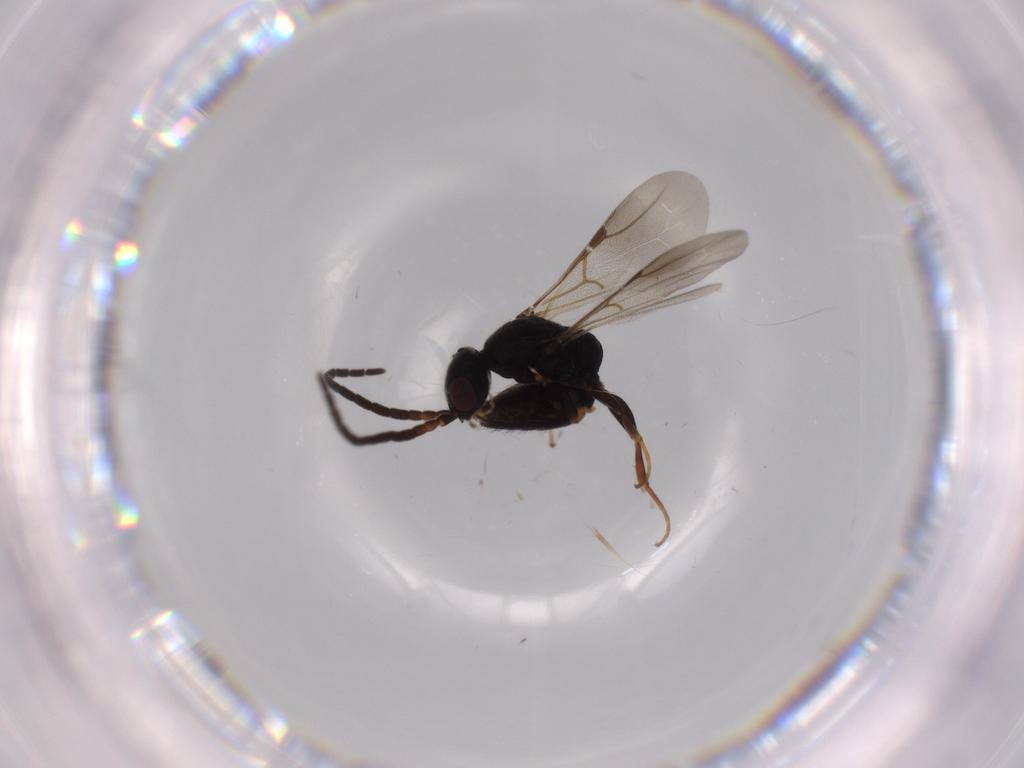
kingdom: Animalia
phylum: Arthropoda
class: Insecta
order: Hymenoptera
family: Bethylidae
